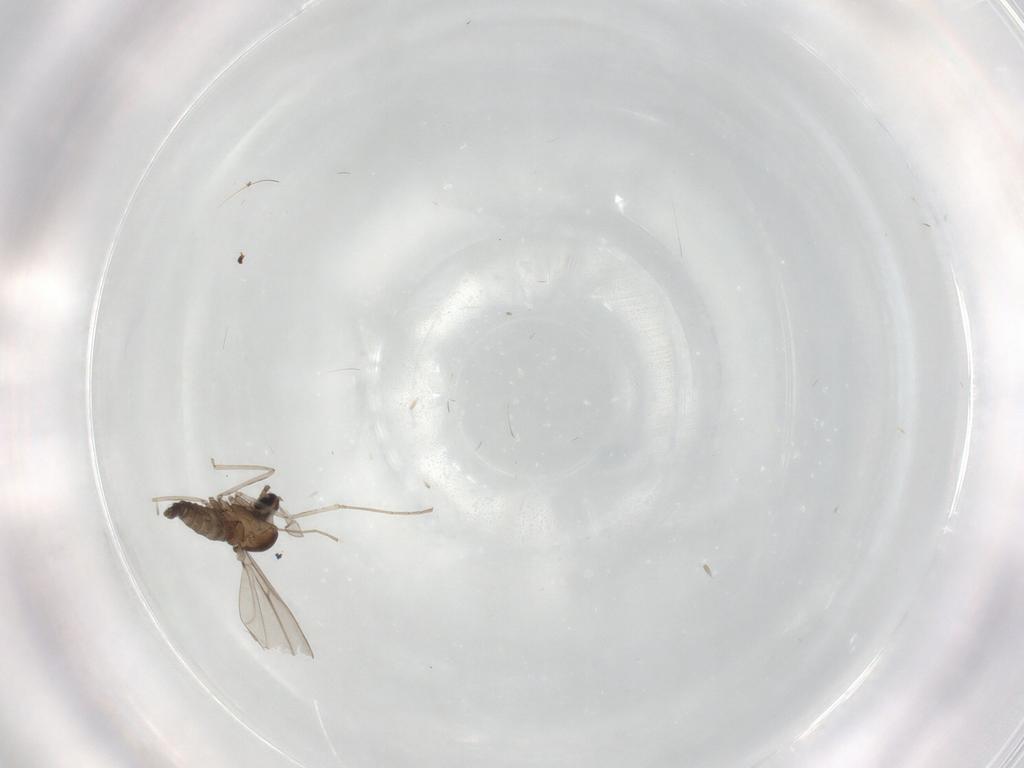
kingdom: Animalia
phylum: Arthropoda
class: Insecta
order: Diptera
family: Cecidomyiidae
